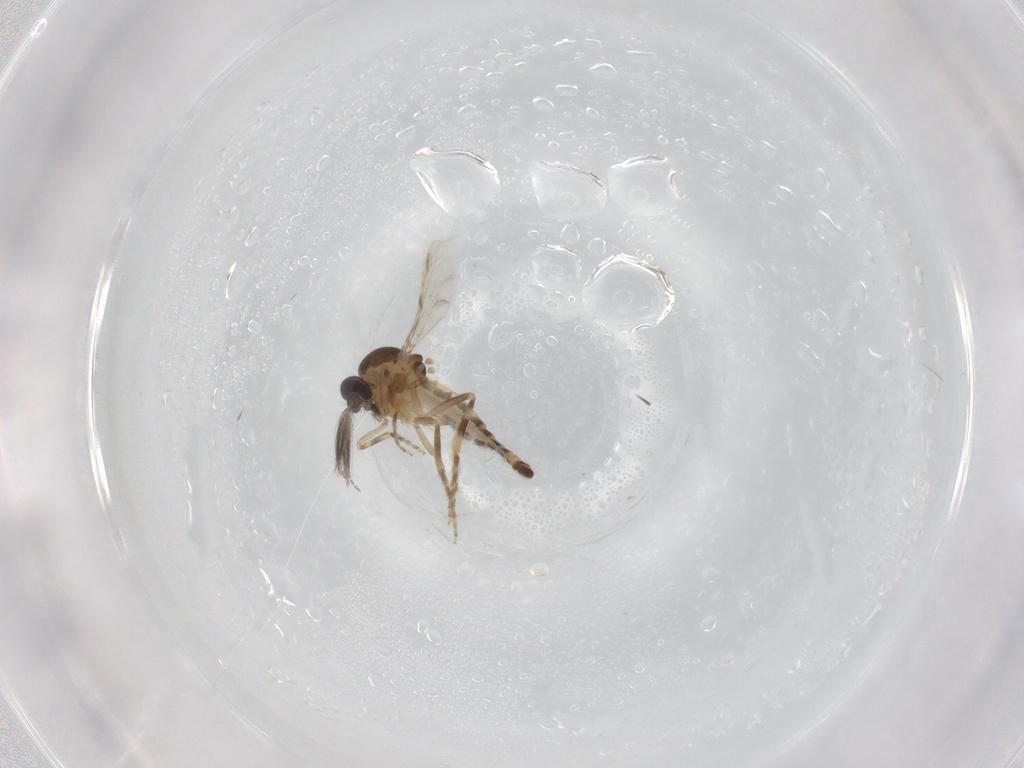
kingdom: Animalia
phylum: Arthropoda
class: Insecta
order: Diptera
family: Ceratopogonidae
